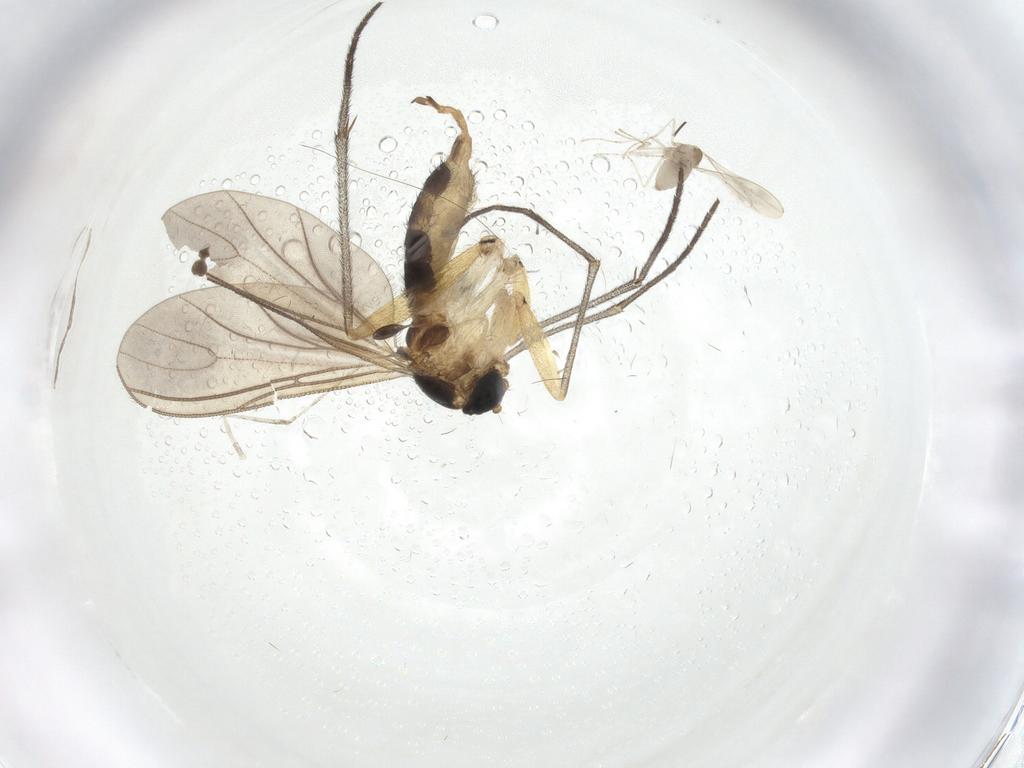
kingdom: Animalia
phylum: Arthropoda
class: Insecta
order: Diptera
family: Sciaridae
